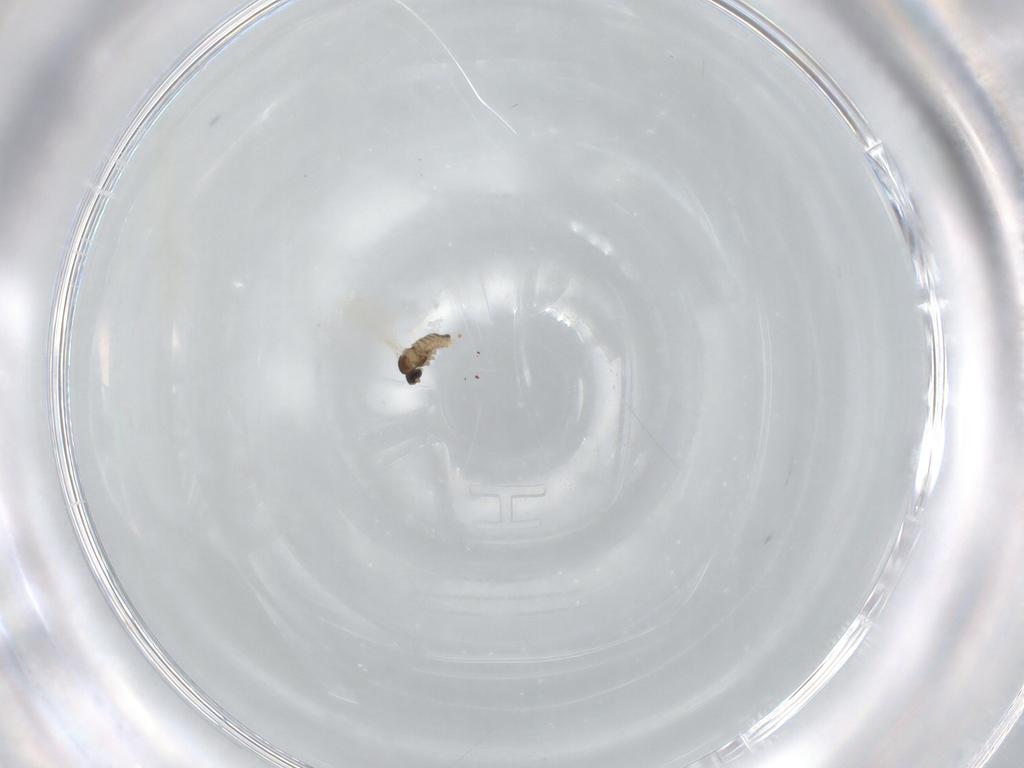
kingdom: Animalia
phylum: Arthropoda
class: Insecta
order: Diptera
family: Cecidomyiidae
